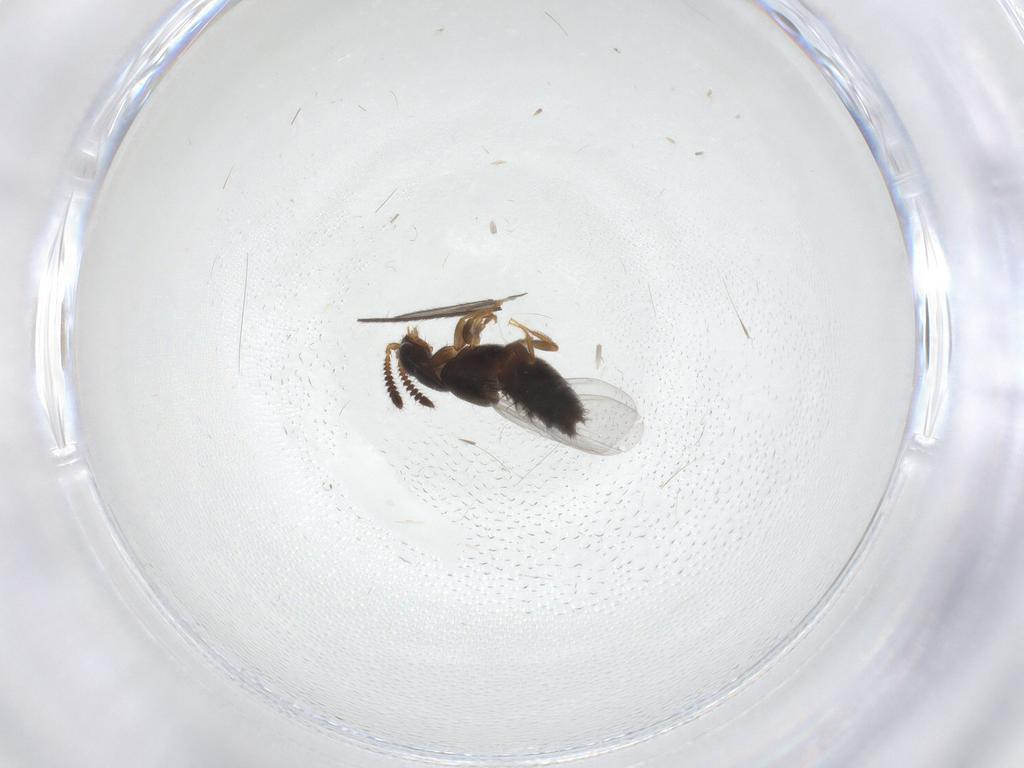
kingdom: Animalia
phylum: Arthropoda
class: Insecta
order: Coleoptera
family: Staphylinidae
